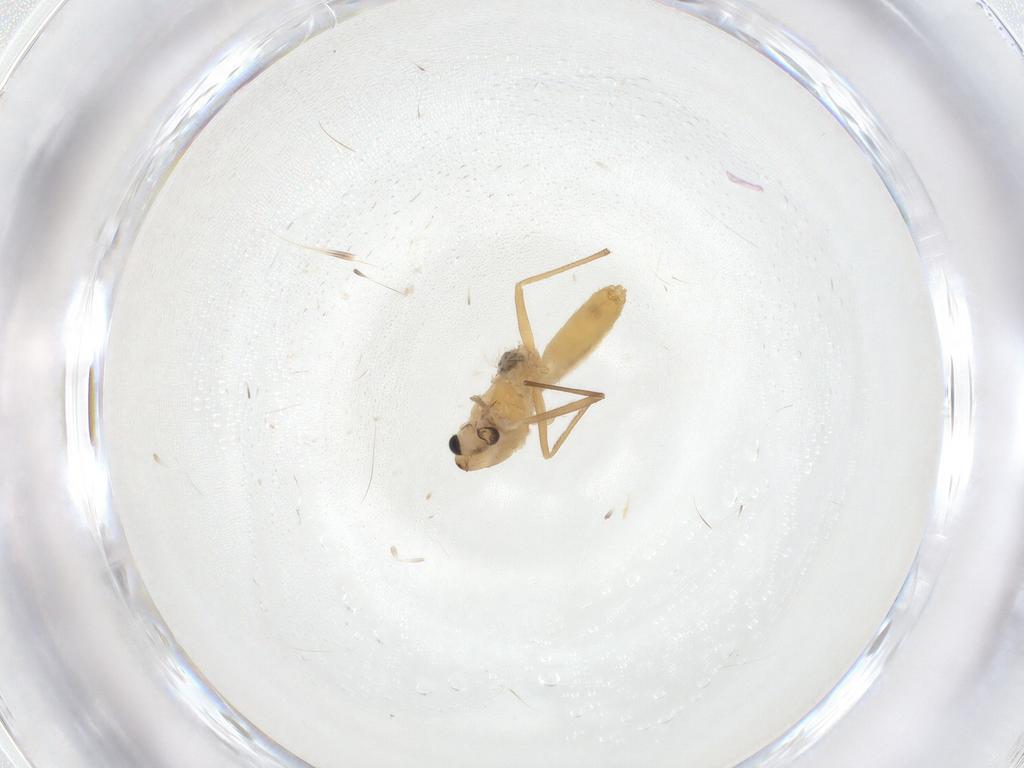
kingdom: Animalia
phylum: Arthropoda
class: Insecta
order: Diptera
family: Chironomidae
